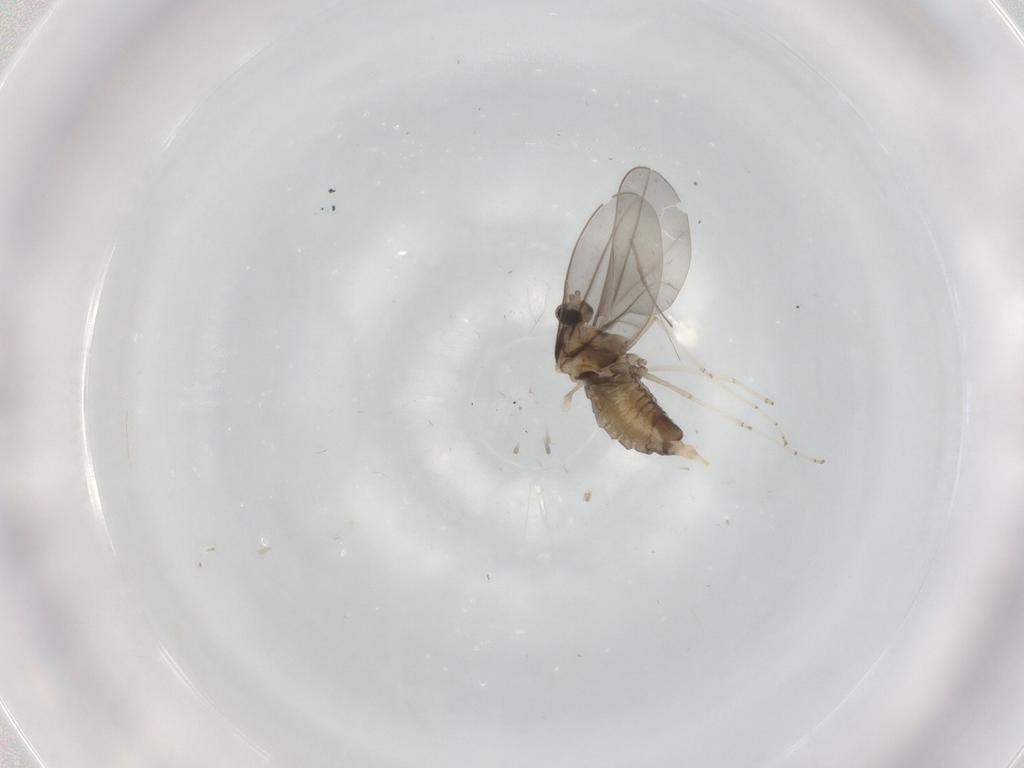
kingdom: Animalia
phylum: Arthropoda
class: Insecta
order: Diptera
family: Cecidomyiidae
